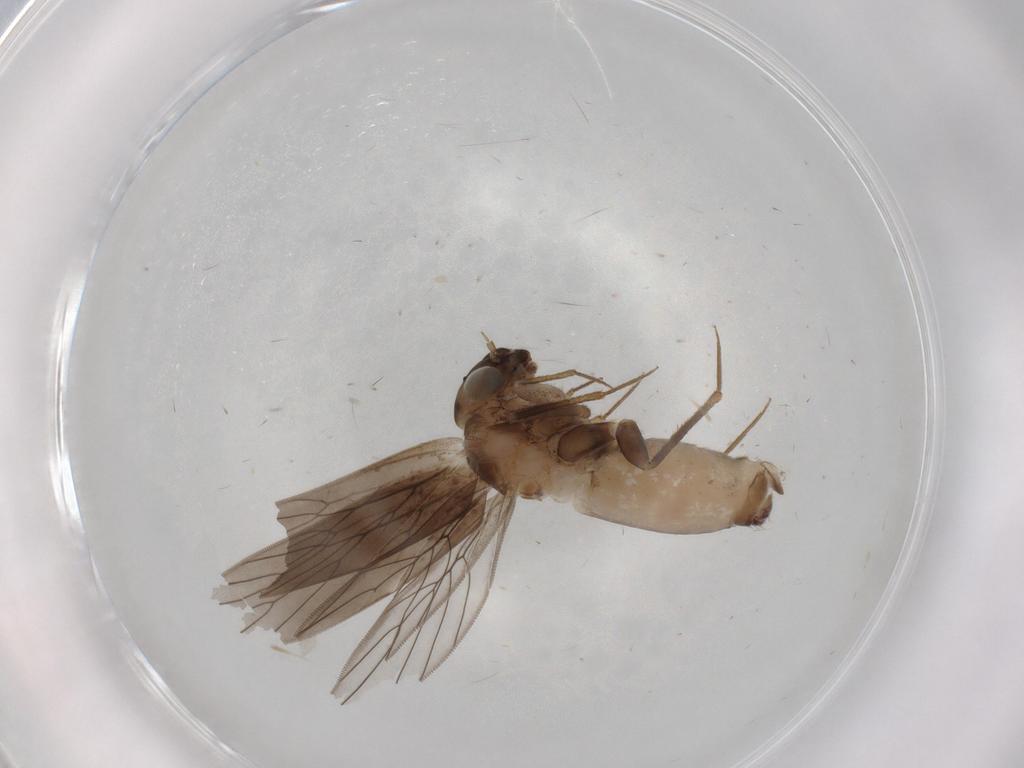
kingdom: Animalia
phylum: Arthropoda
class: Insecta
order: Psocodea
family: Lepidopsocidae
